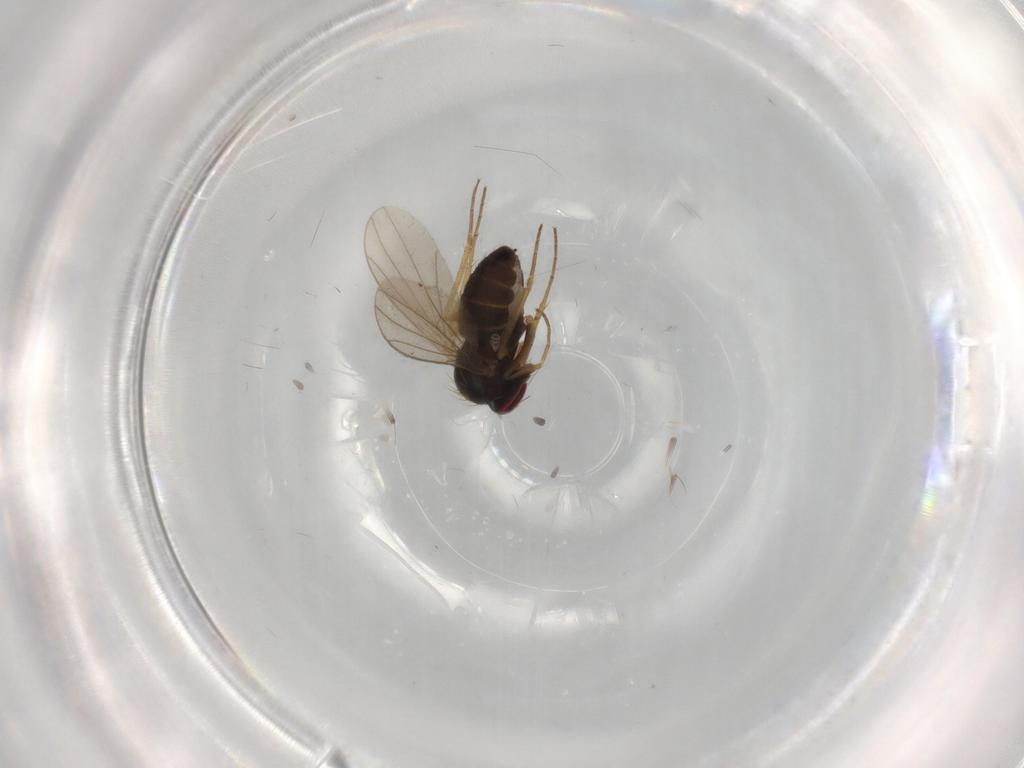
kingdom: Animalia
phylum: Arthropoda
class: Insecta
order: Diptera
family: Dolichopodidae
